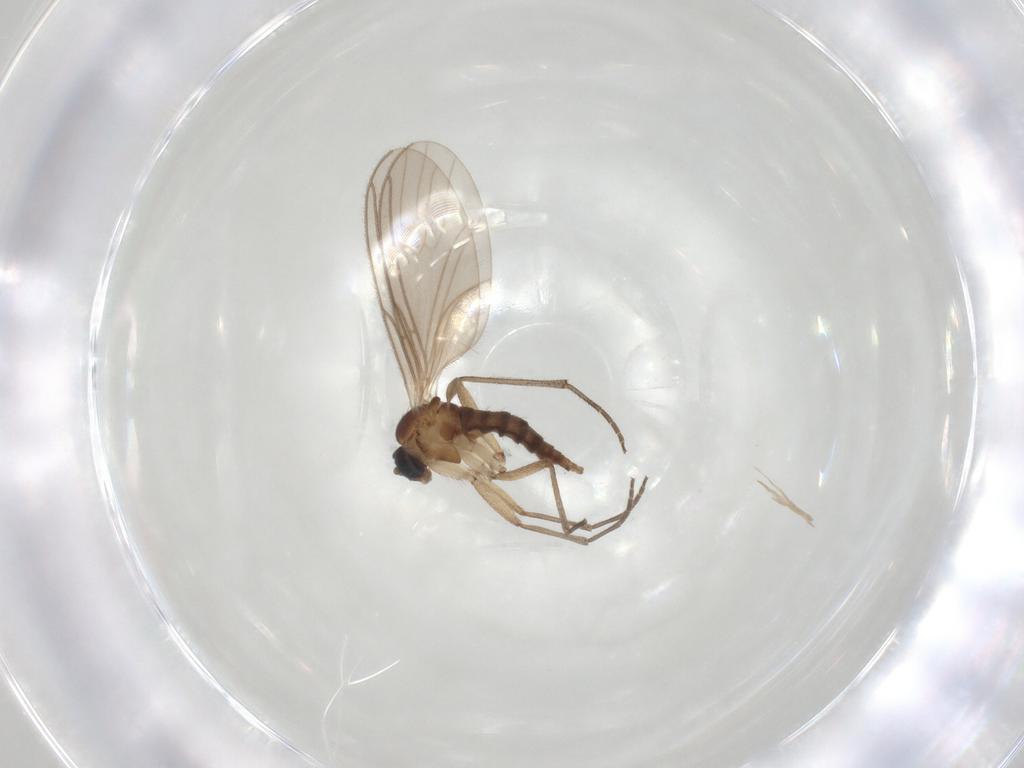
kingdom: Animalia
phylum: Arthropoda
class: Insecta
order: Diptera
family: Sciaridae
